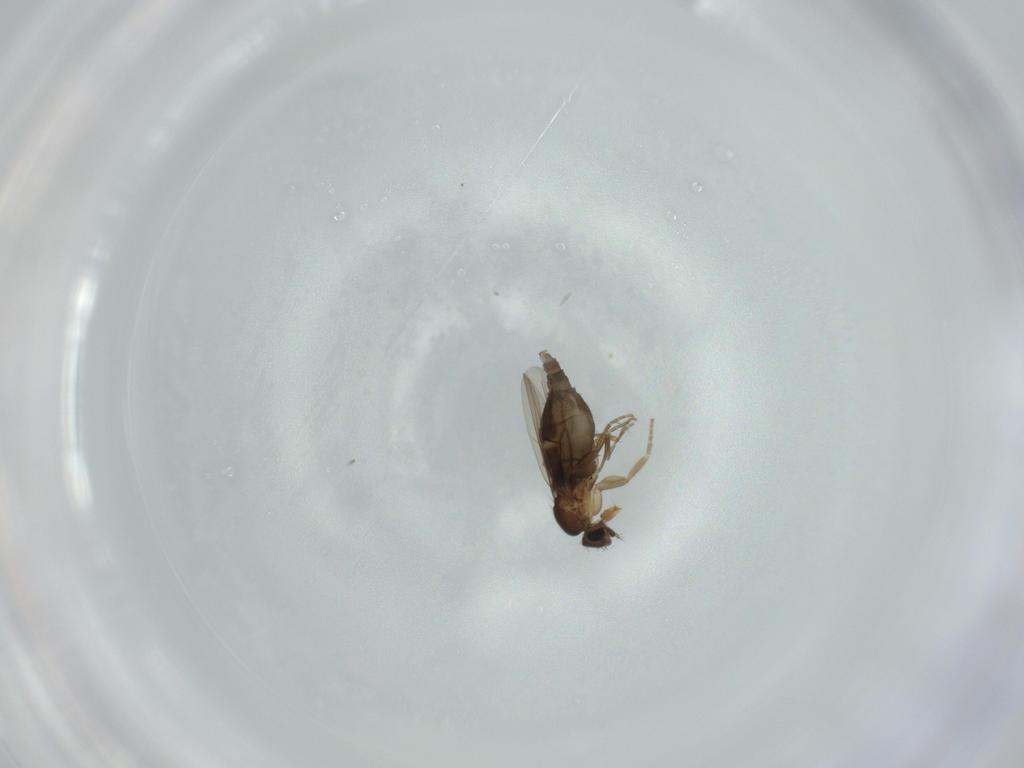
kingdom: Animalia
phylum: Arthropoda
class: Insecta
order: Diptera
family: Phoridae
